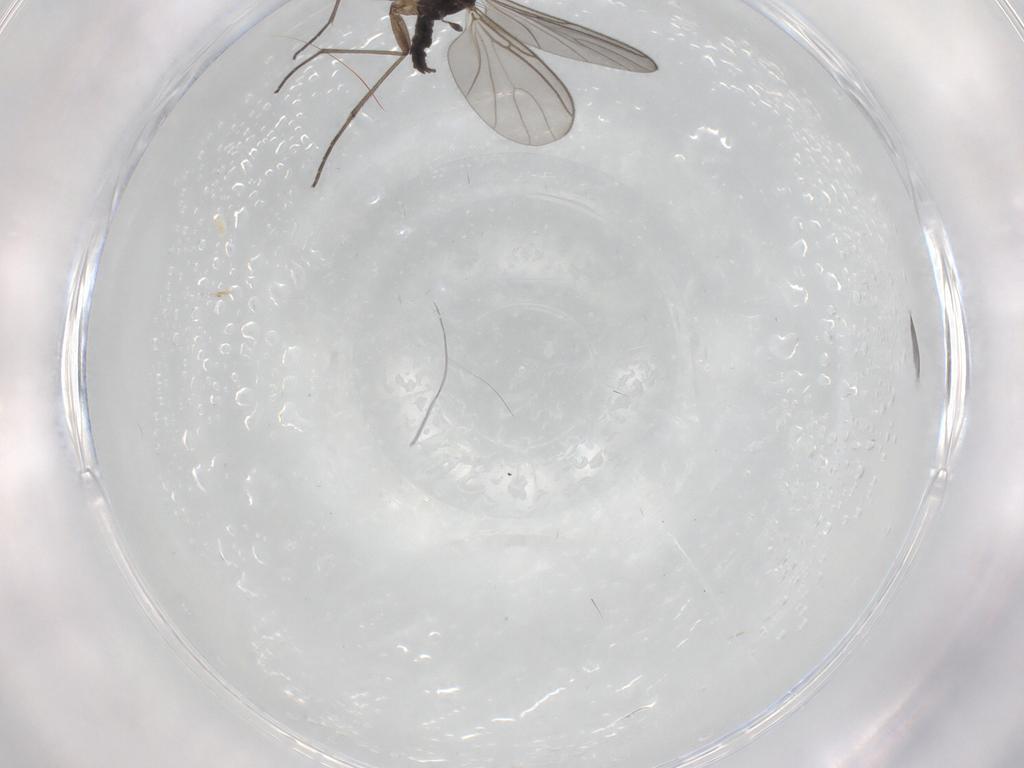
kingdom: Animalia
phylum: Arthropoda
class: Insecta
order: Diptera
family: Sciaridae
